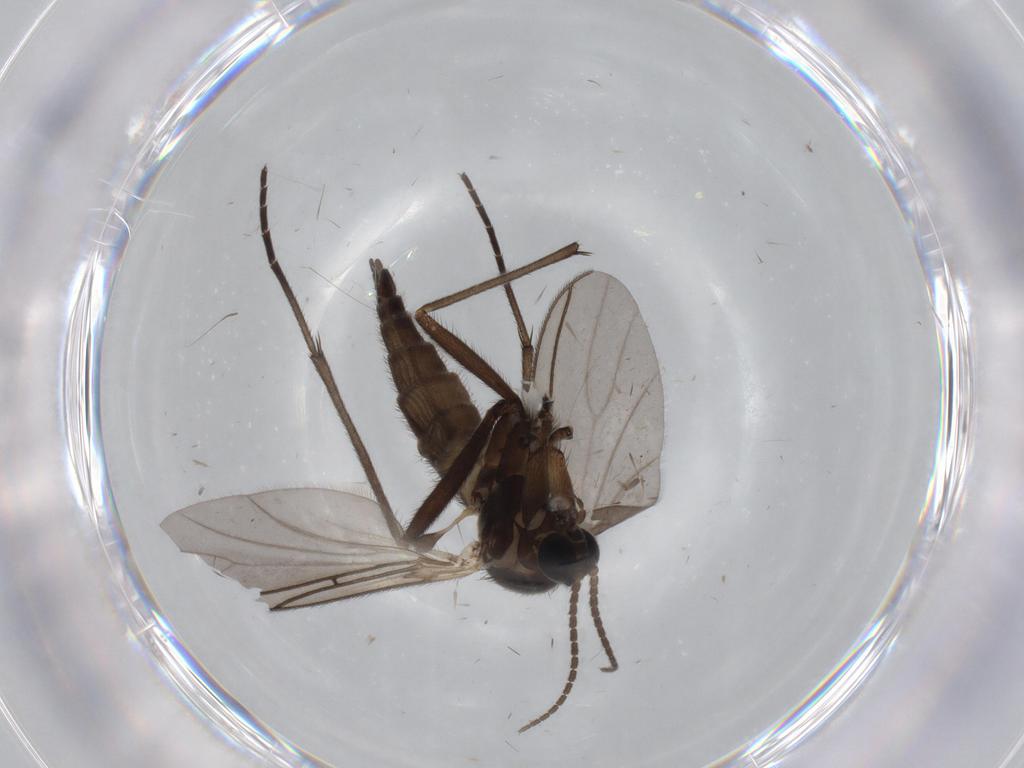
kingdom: Animalia
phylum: Arthropoda
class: Insecta
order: Diptera
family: Sciaridae
